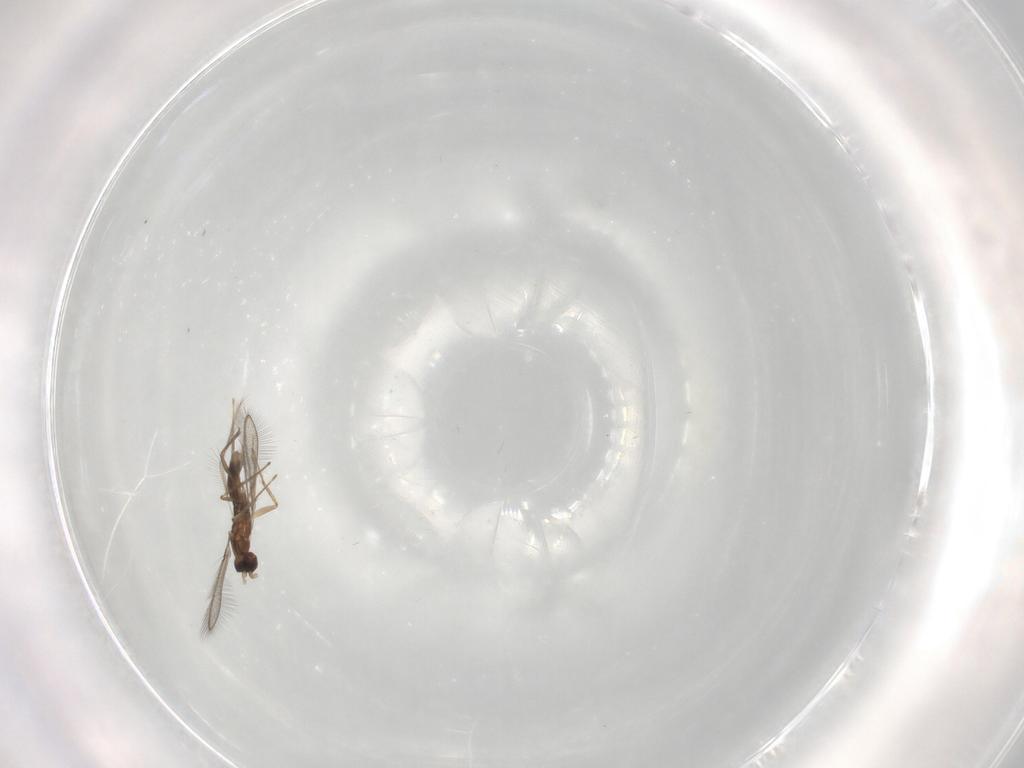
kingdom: Animalia
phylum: Arthropoda
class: Insecta
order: Hymenoptera
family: Mymaridae
